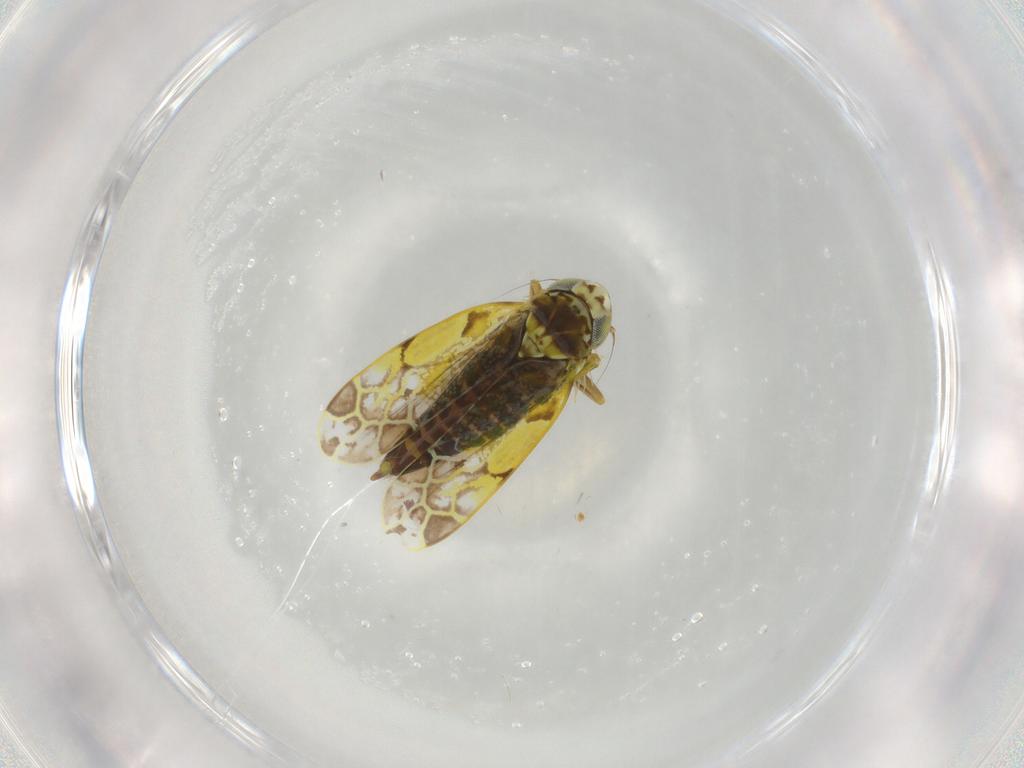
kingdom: Animalia
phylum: Arthropoda
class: Insecta
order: Hemiptera
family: Cicadellidae
